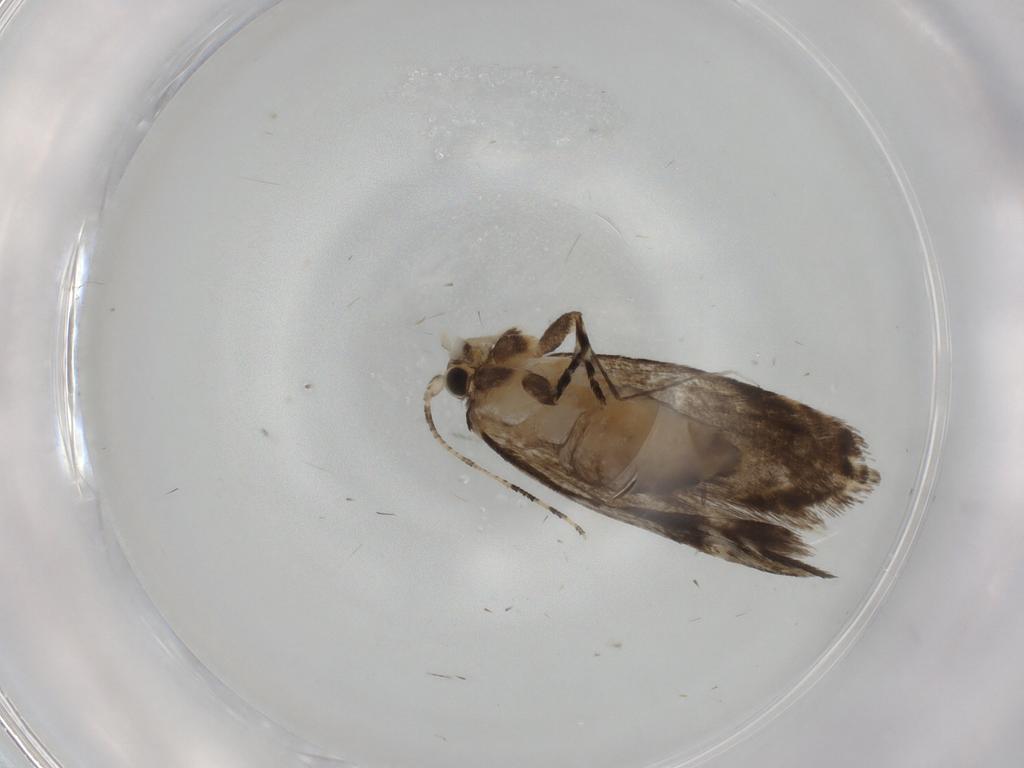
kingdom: Animalia
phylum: Arthropoda
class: Insecta
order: Lepidoptera
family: Tineidae
